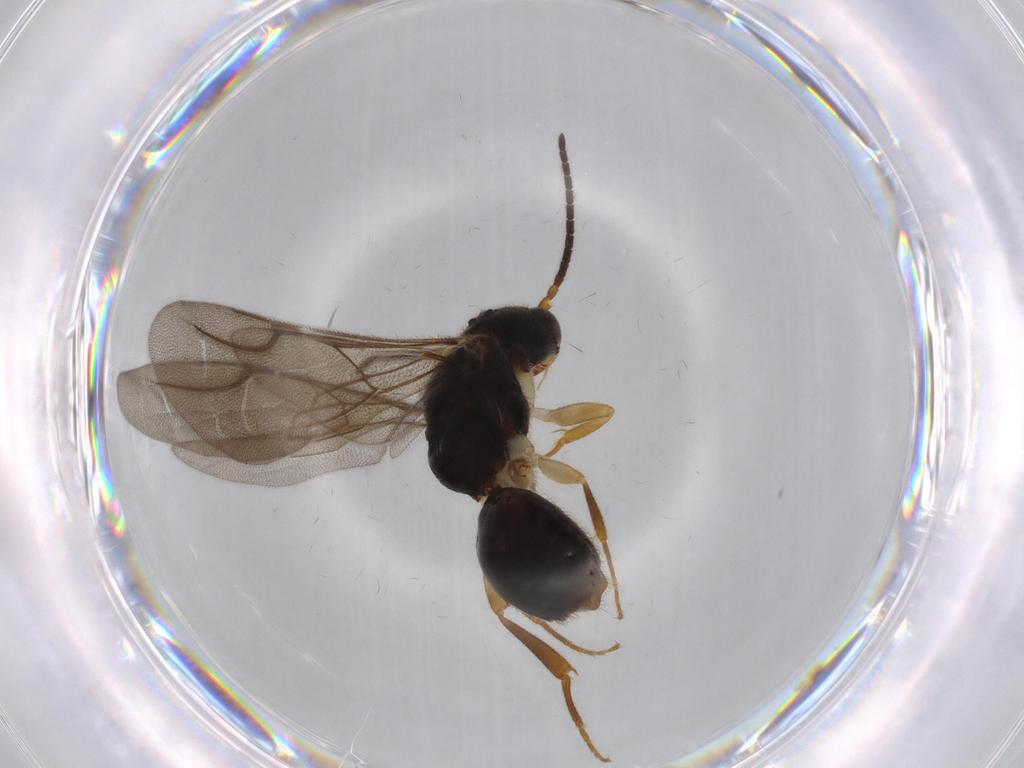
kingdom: Animalia
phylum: Arthropoda
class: Insecta
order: Hymenoptera
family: Bethylidae
